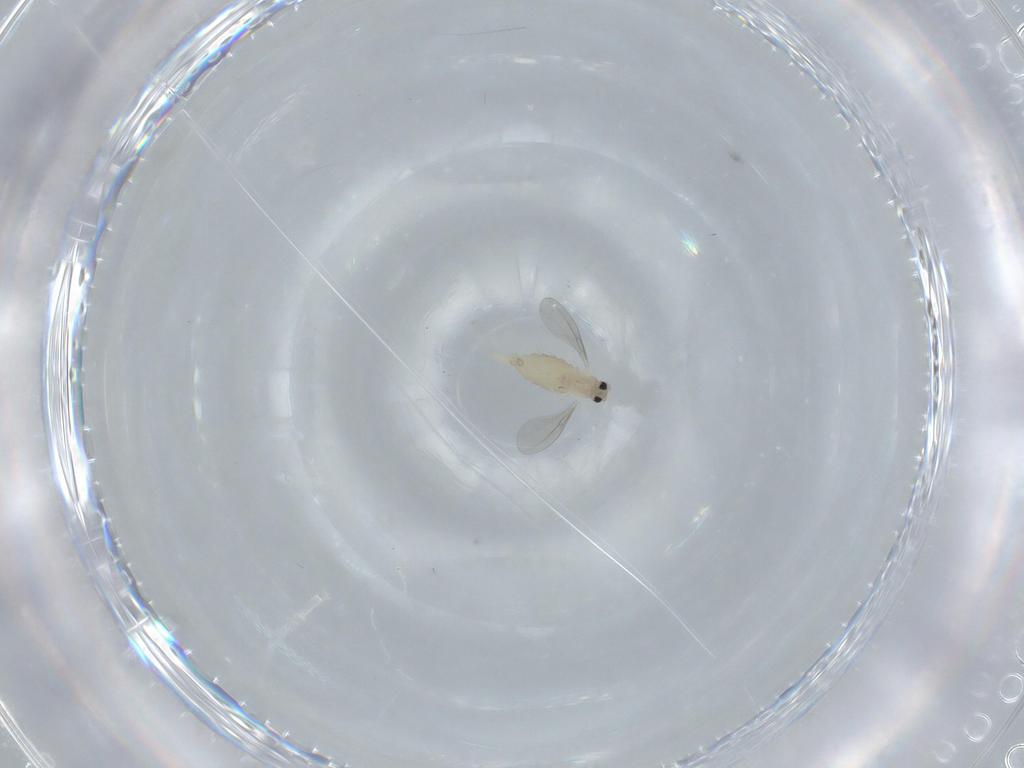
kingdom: Animalia
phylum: Arthropoda
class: Insecta
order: Diptera
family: Cecidomyiidae
